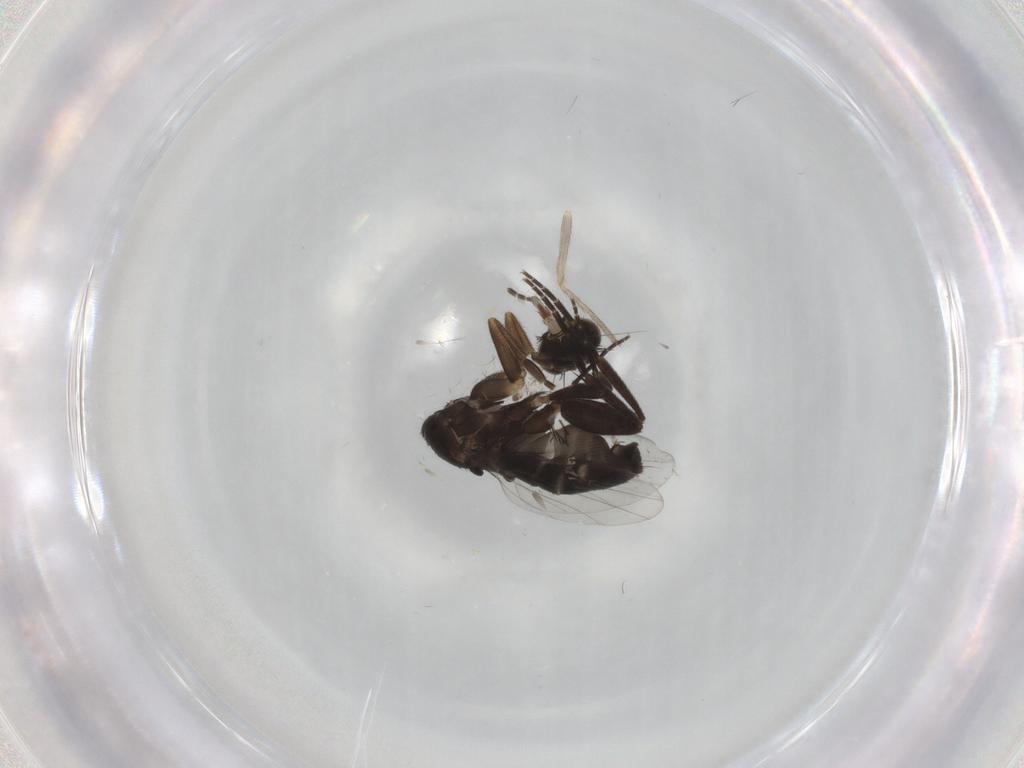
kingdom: Animalia
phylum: Arthropoda
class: Insecta
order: Diptera
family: Chironomidae
